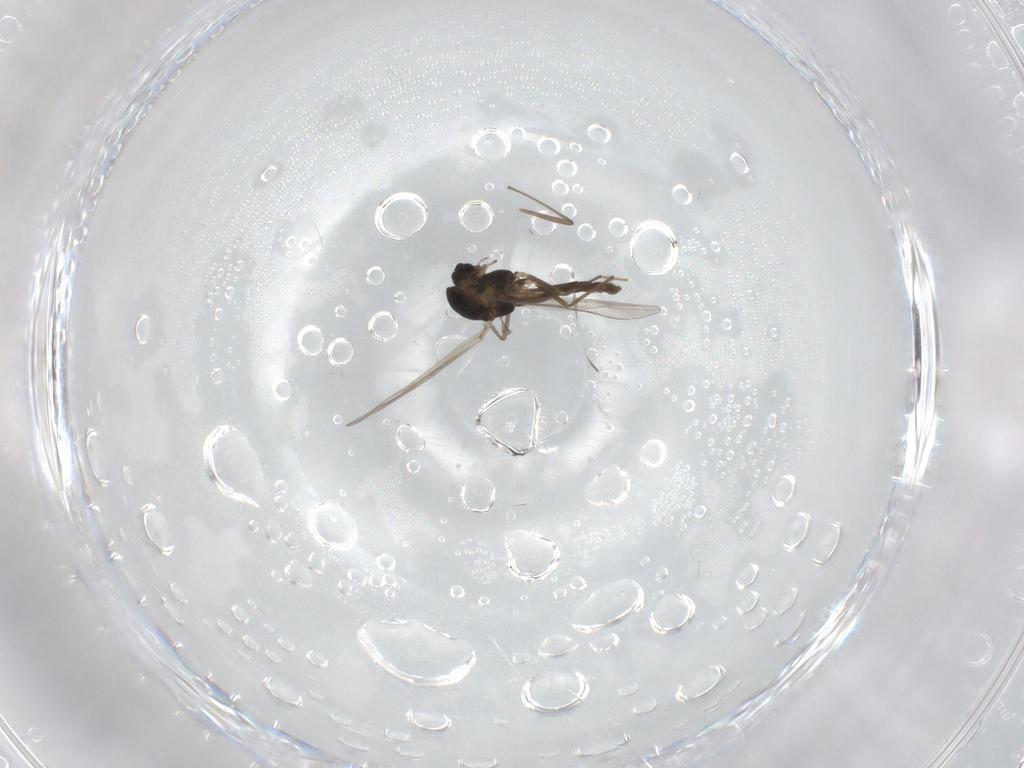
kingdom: Animalia
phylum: Arthropoda
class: Insecta
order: Diptera
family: Chironomidae
